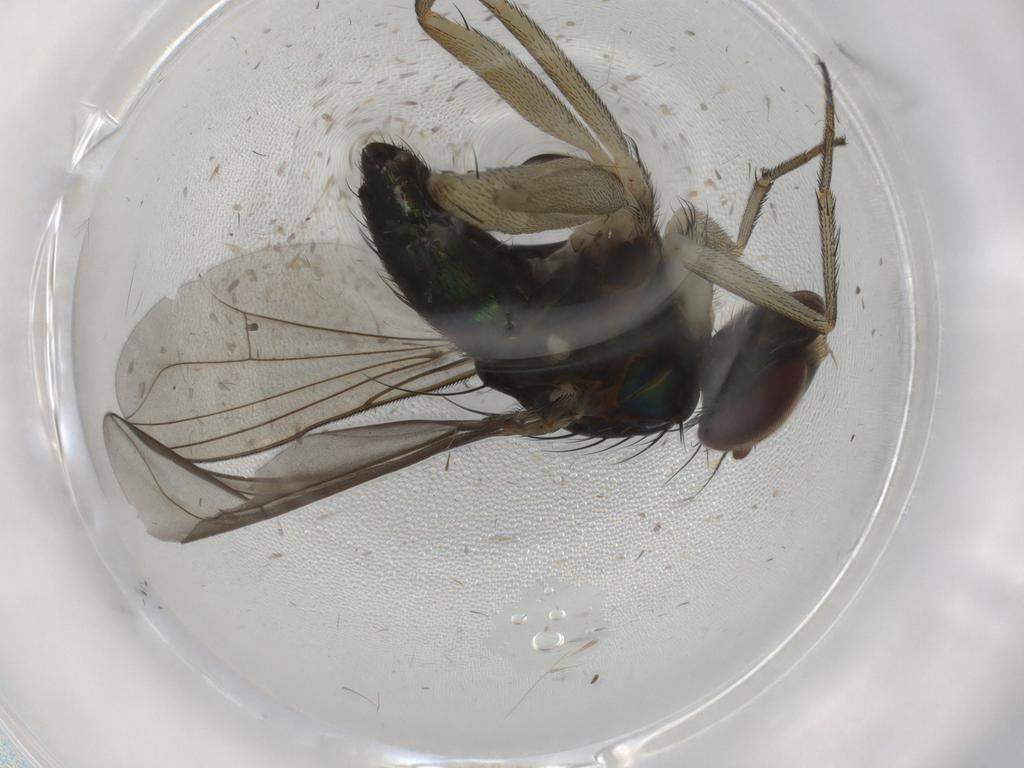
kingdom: Animalia
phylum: Arthropoda
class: Insecta
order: Diptera
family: Dolichopodidae
